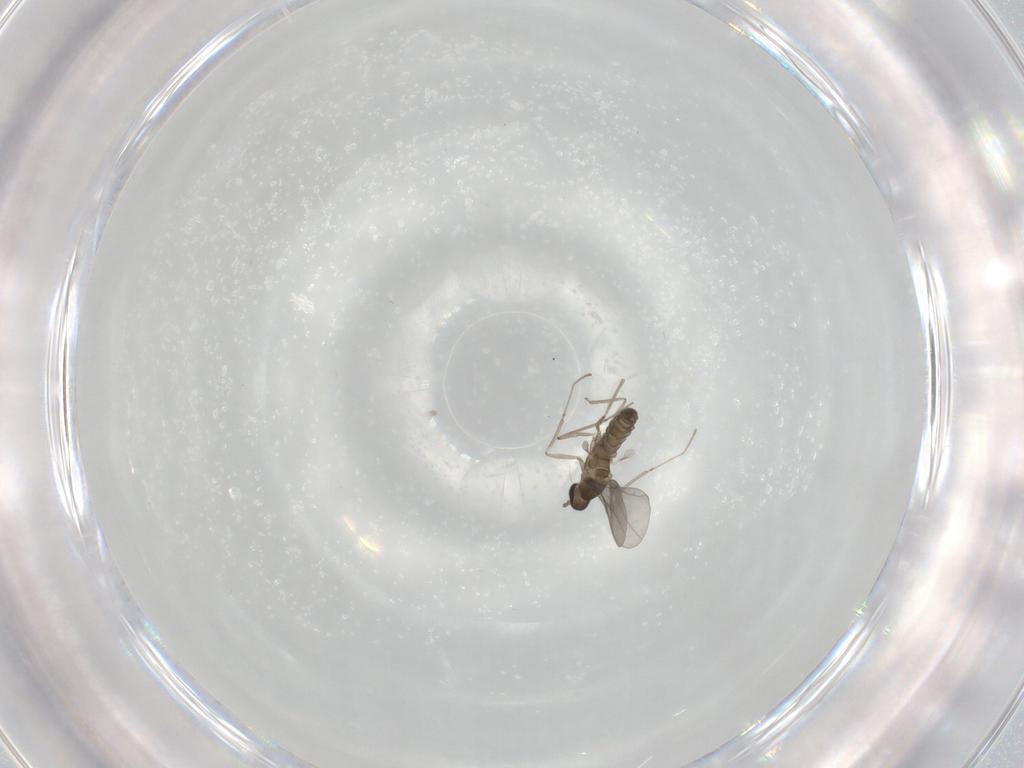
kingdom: Animalia
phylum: Arthropoda
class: Insecta
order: Diptera
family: Cecidomyiidae
